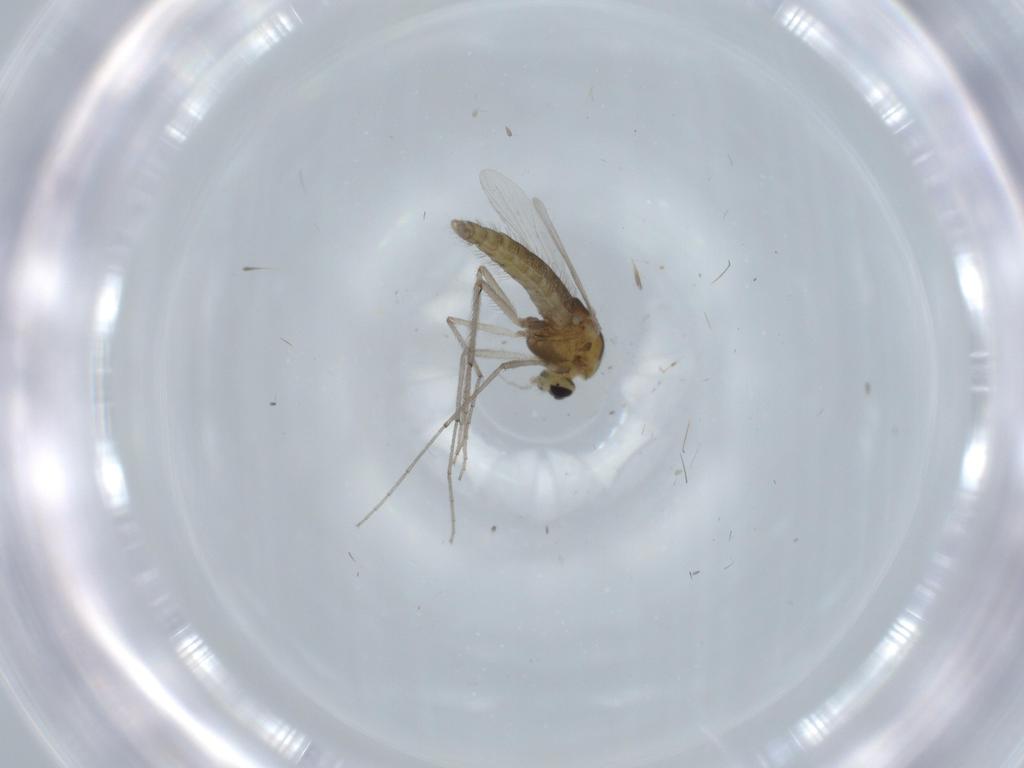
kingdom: Animalia
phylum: Arthropoda
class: Insecta
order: Diptera
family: Chironomidae
